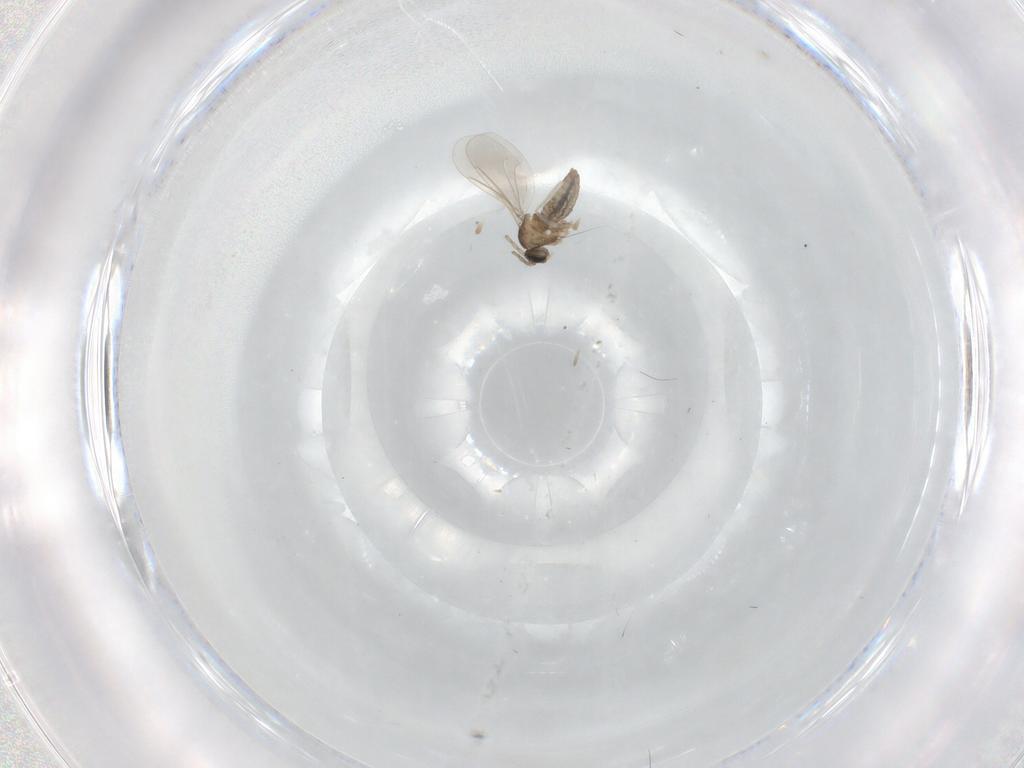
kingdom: Animalia
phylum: Arthropoda
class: Insecta
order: Diptera
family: Cecidomyiidae
